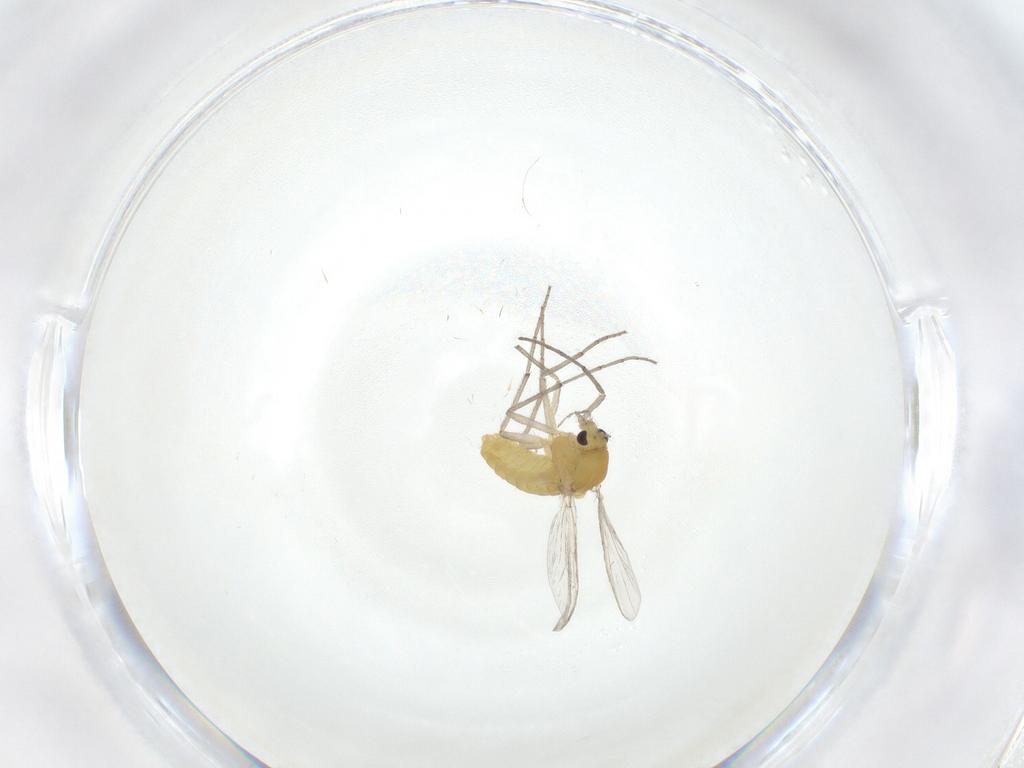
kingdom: Animalia
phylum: Arthropoda
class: Insecta
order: Diptera
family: Chironomidae
